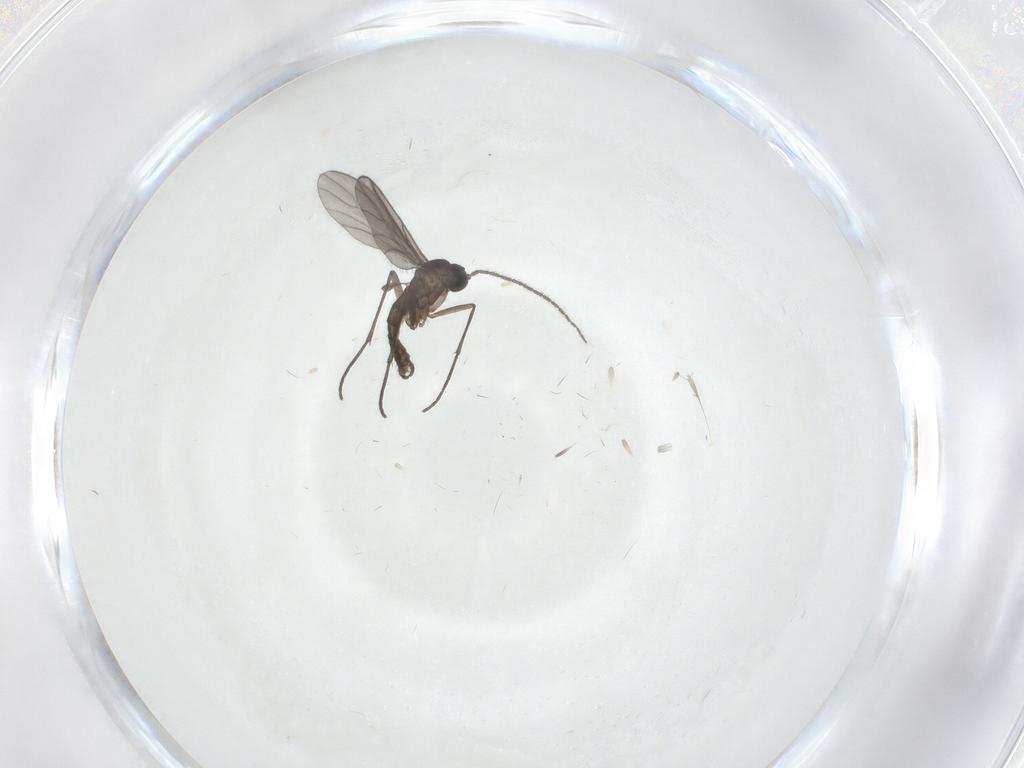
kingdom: Animalia
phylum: Arthropoda
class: Insecta
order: Diptera
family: Sciaridae
